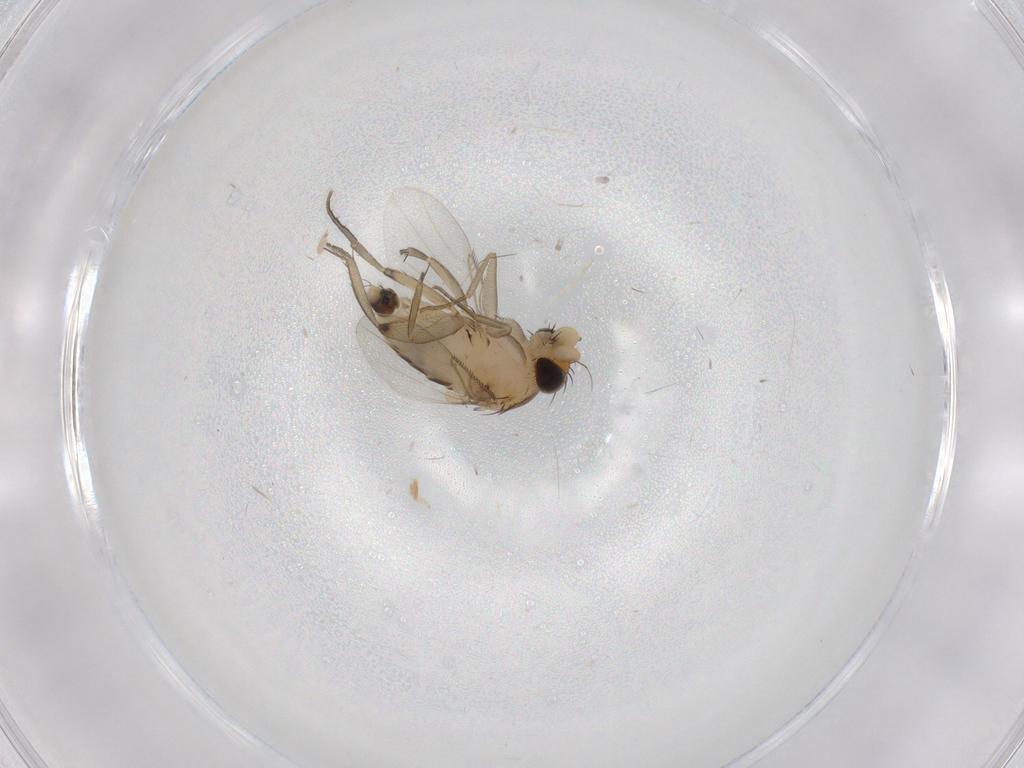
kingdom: Animalia
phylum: Arthropoda
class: Insecta
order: Diptera
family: Phoridae
